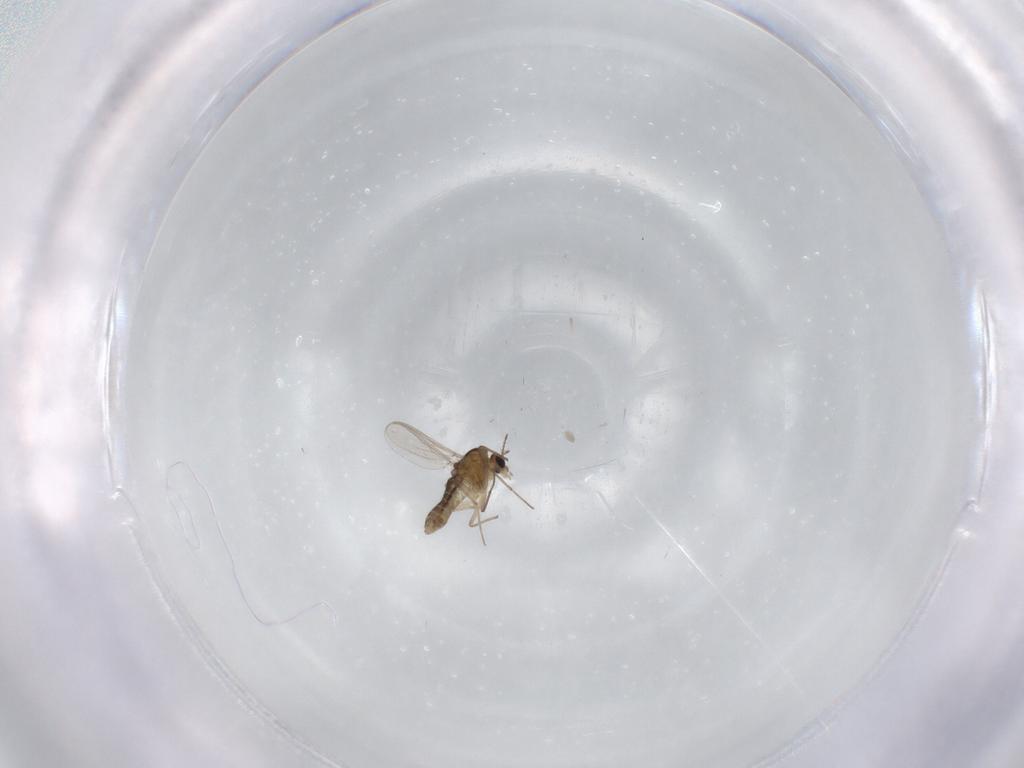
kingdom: Animalia
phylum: Arthropoda
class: Insecta
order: Diptera
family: Chironomidae
